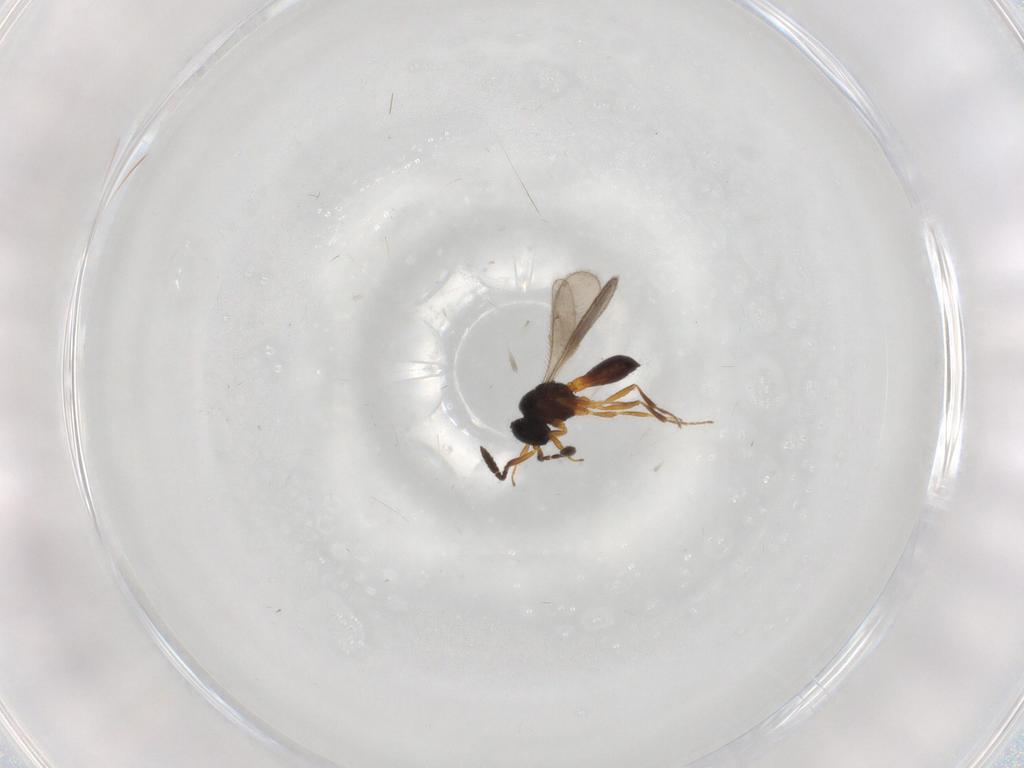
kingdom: Animalia
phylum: Arthropoda
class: Insecta
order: Hymenoptera
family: Scelionidae
